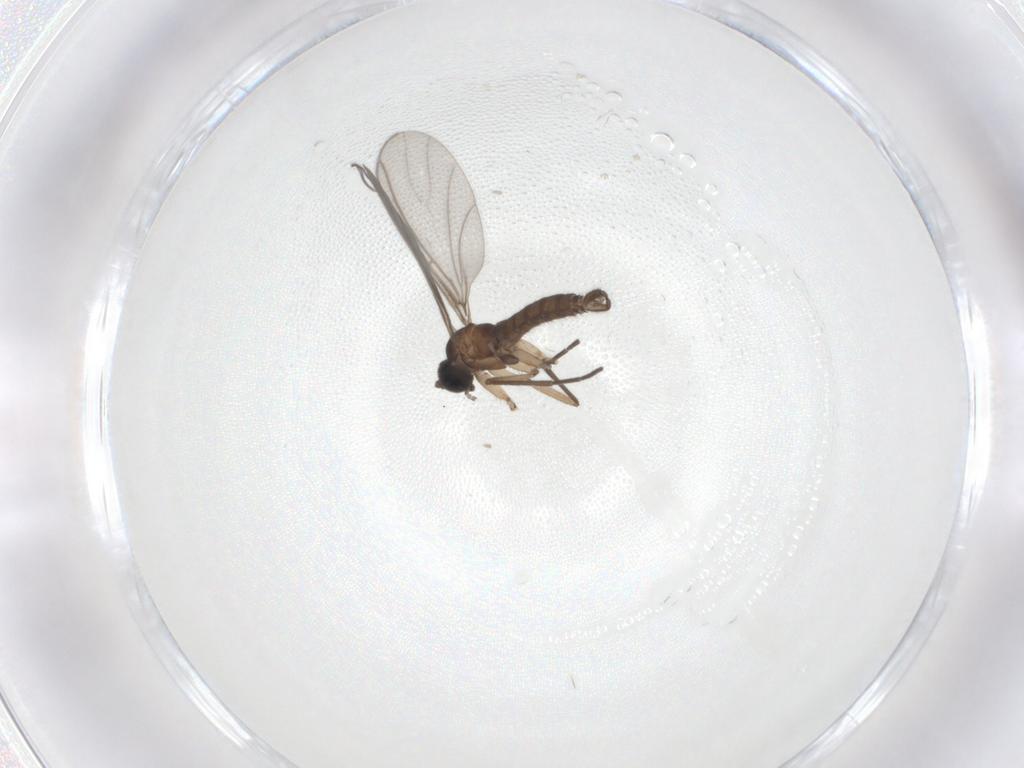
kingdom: Animalia
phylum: Arthropoda
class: Insecta
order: Diptera
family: Sciaridae
